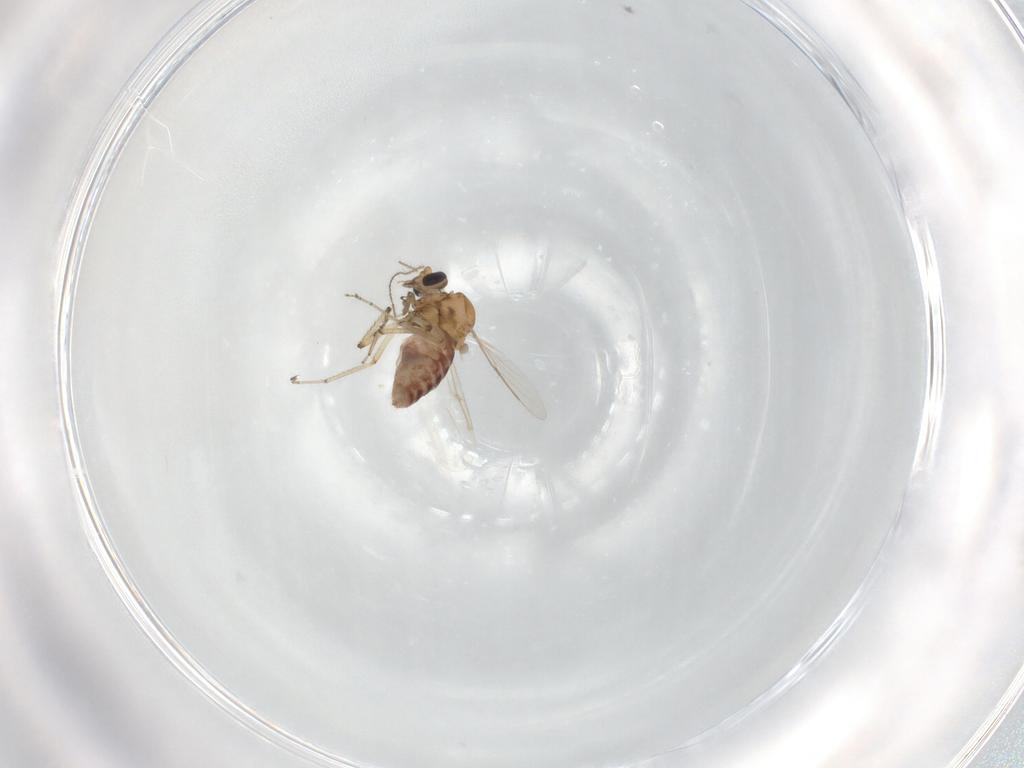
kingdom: Animalia
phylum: Arthropoda
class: Insecta
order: Diptera
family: Ceratopogonidae
